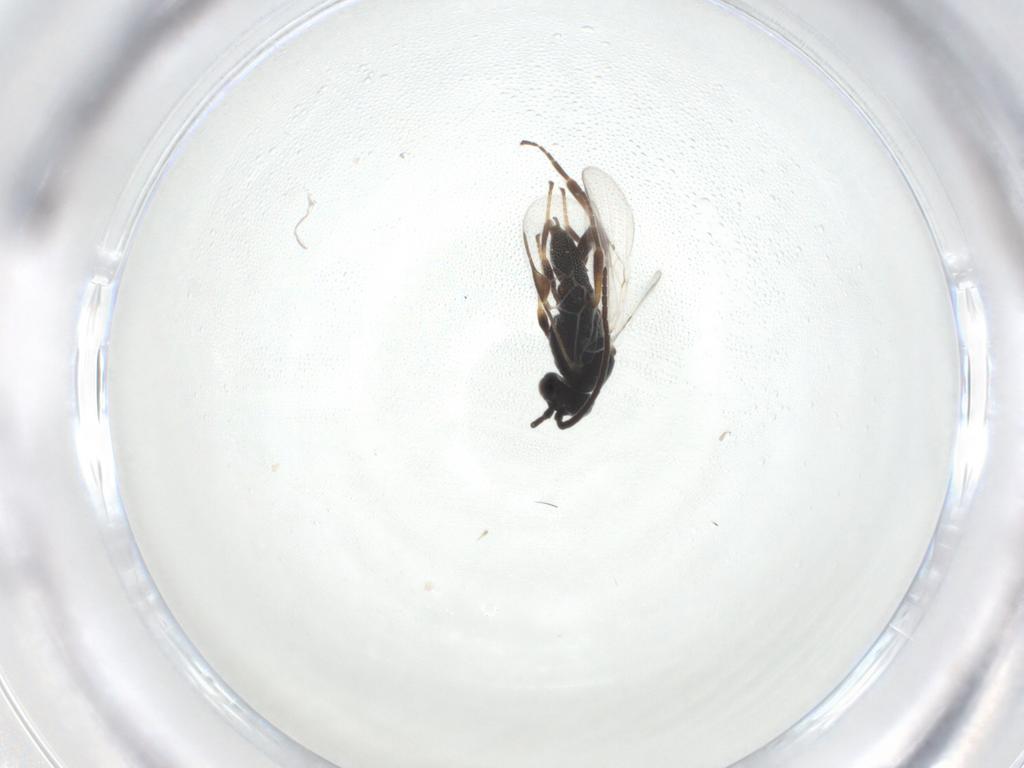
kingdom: Animalia
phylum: Arthropoda
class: Insecta
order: Hymenoptera
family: Braconidae
